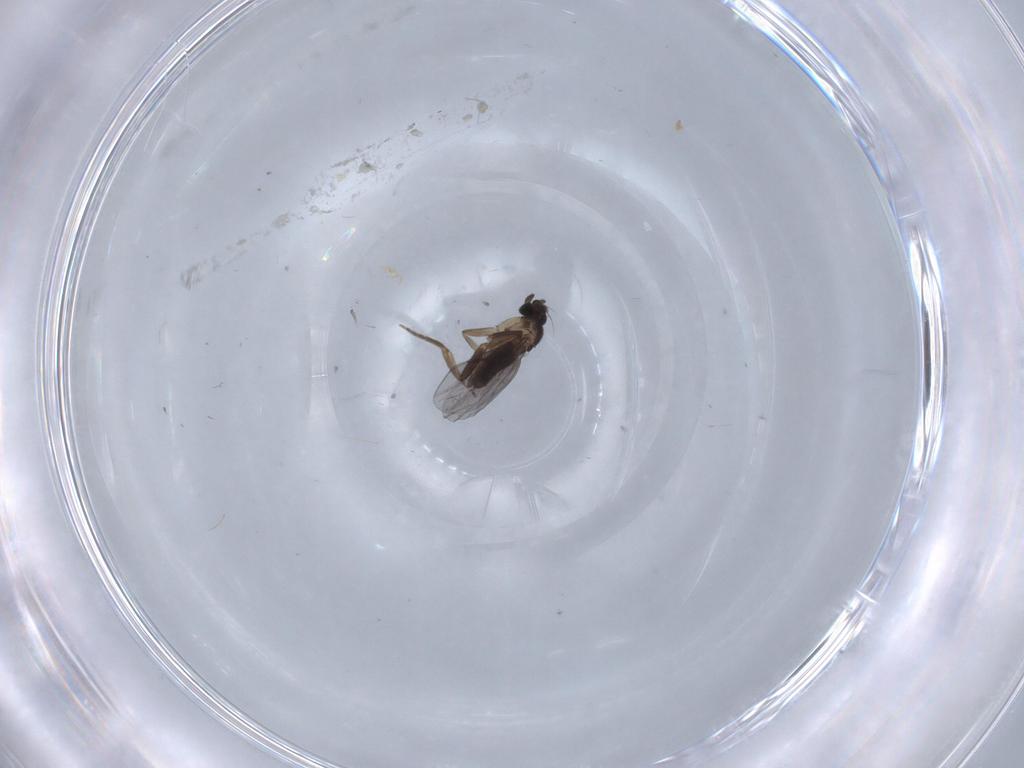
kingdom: Animalia
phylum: Arthropoda
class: Insecta
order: Diptera
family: Cecidomyiidae
